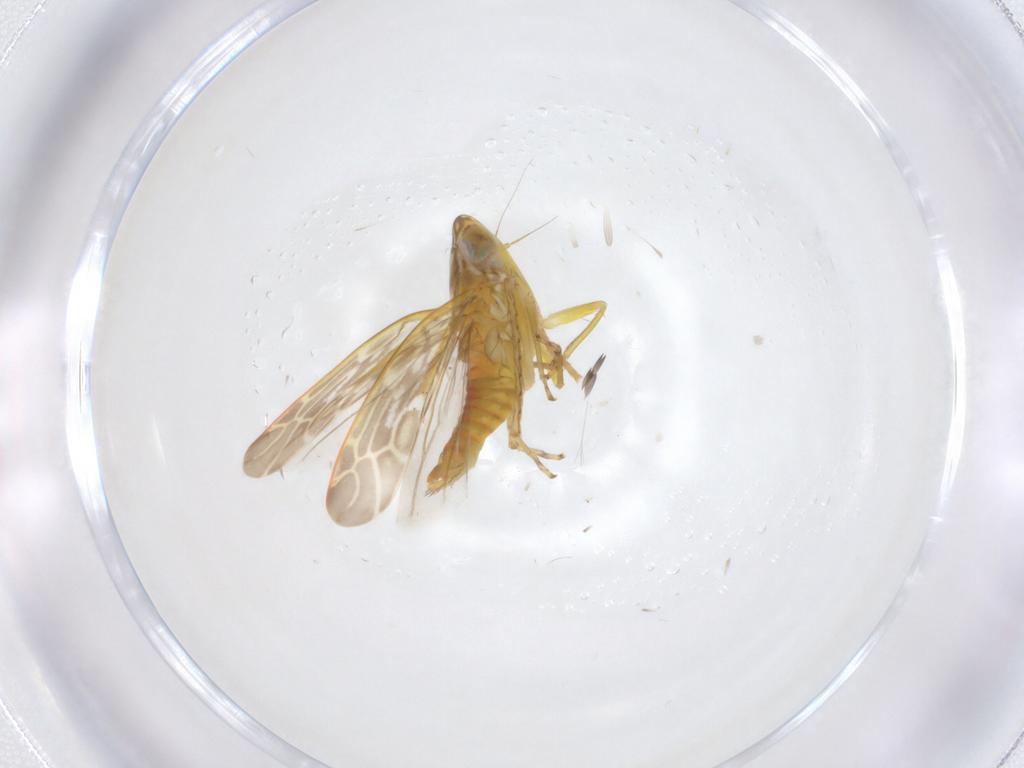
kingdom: Animalia
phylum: Arthropoda
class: Insecta
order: Hemiptera
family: Cicadellidae
